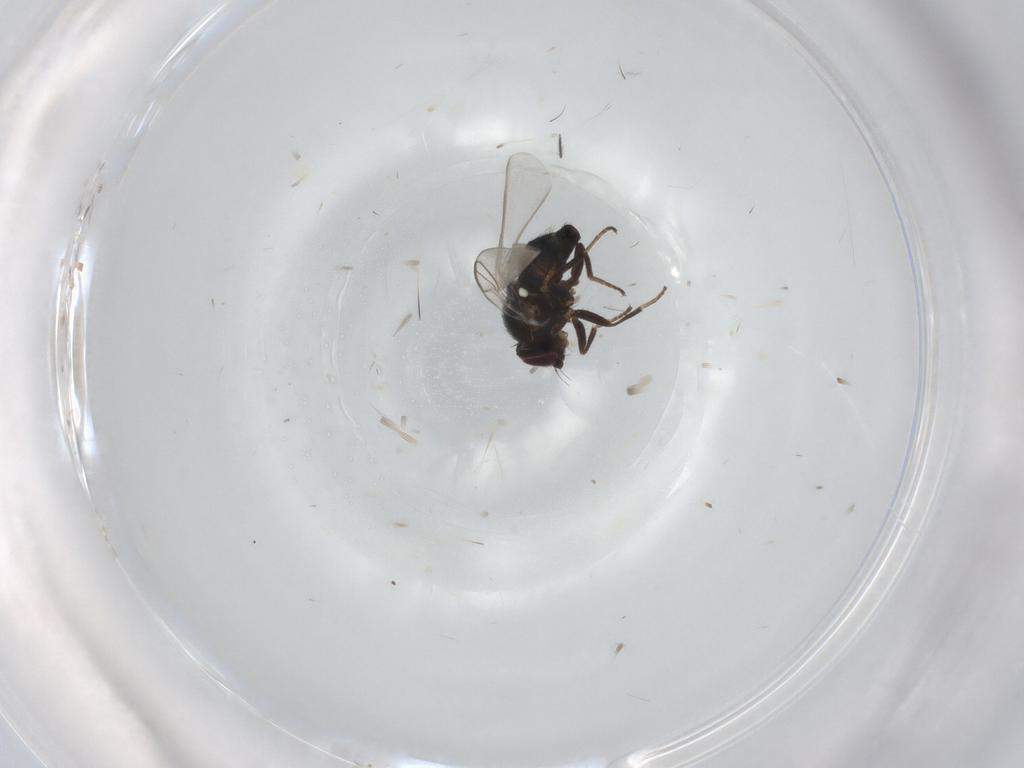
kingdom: Animalia
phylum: Arthropoda
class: Insecta
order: Diptera
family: Agromyzidae
